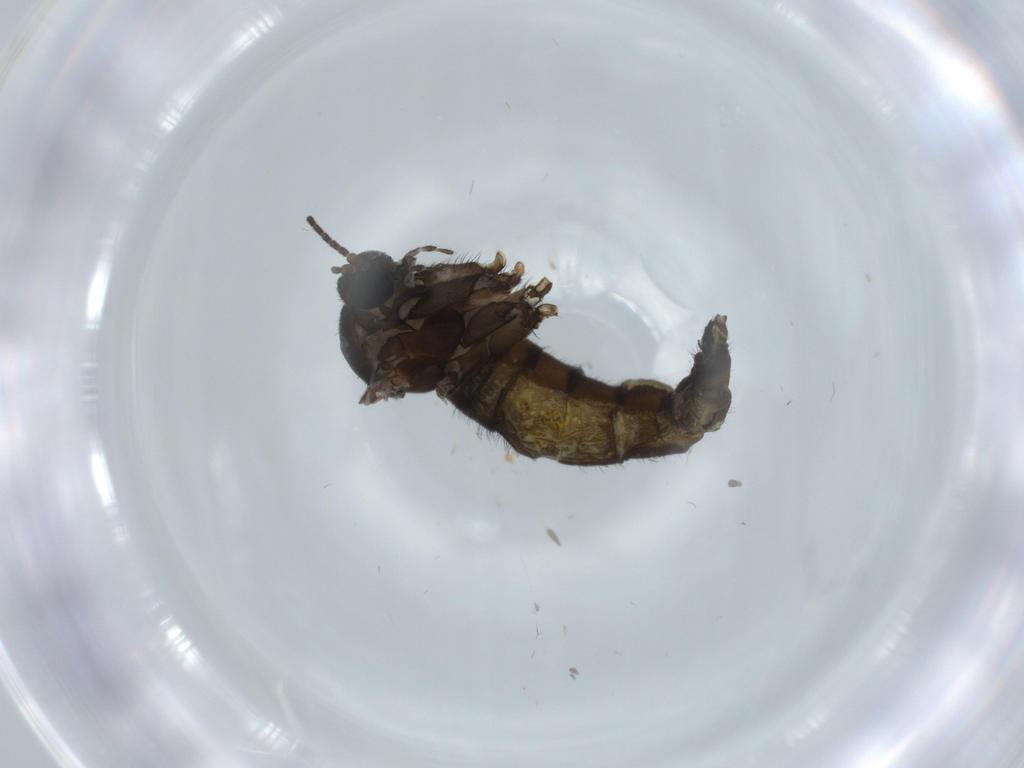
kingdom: Animalia
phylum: Arthropoda
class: Insecta
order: Diptera
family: Sciaridae
